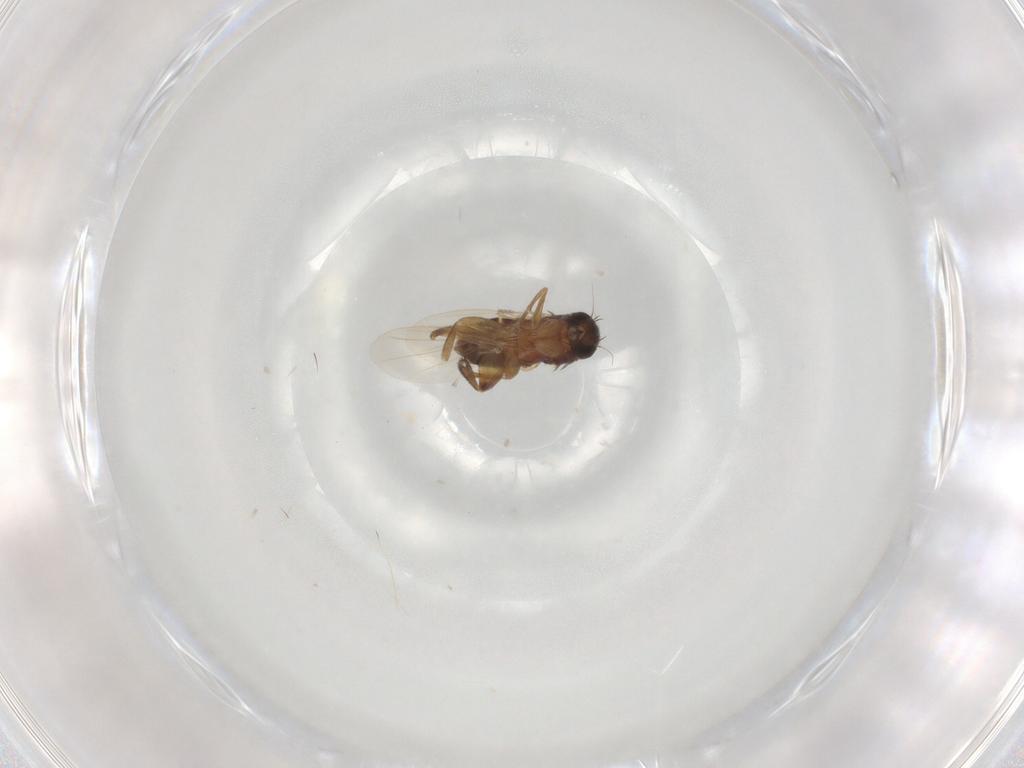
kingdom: Animalia
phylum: Arthropoda
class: Insecta
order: Diptera
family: Phoridae
